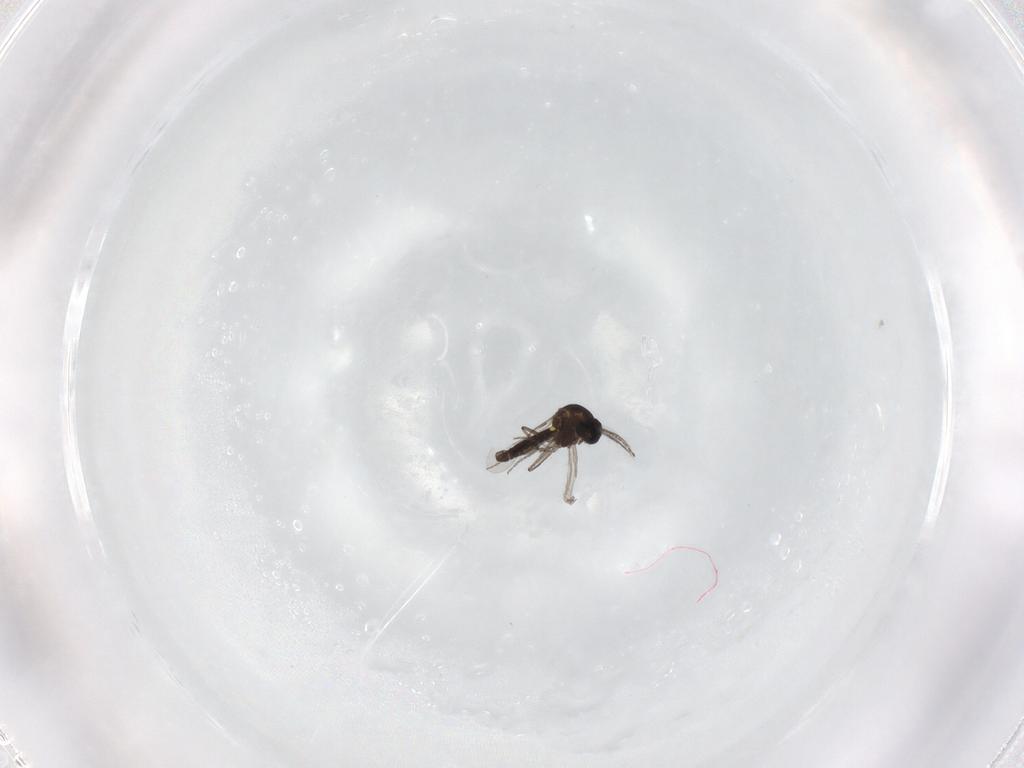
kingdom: Animalia
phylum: Arthropoda
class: Insecta
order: Diptera
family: Ceratopogonidae
